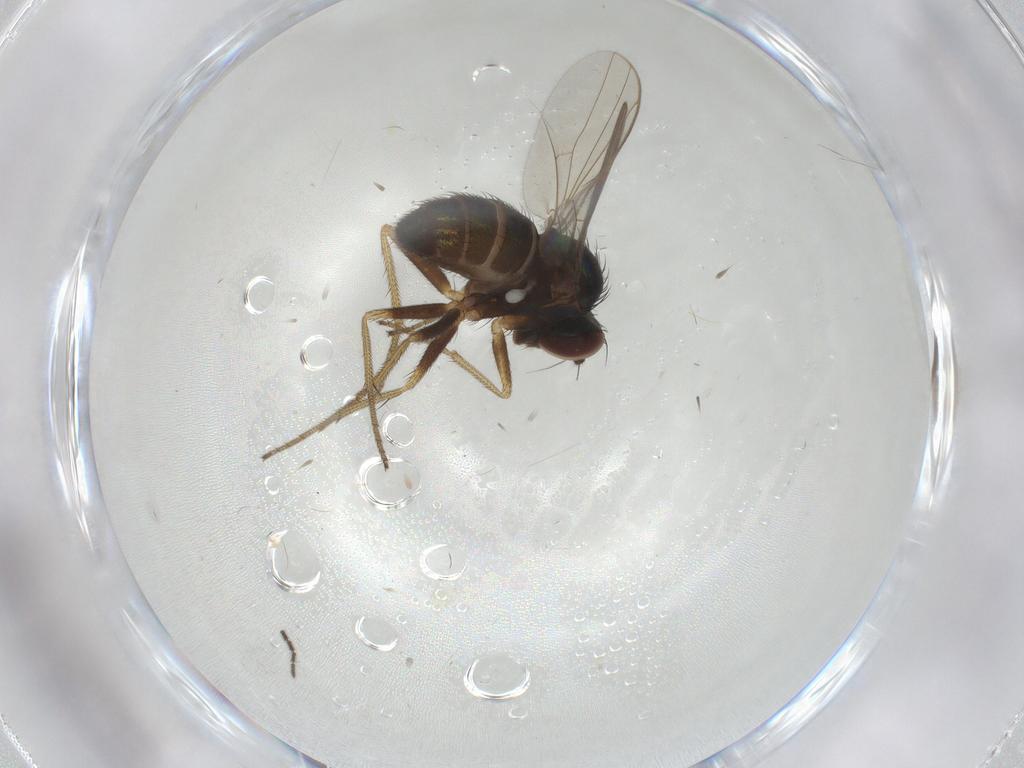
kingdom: Animalia
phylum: Arthropoda
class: Insecta
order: Diptera
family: Dolichopodidae
